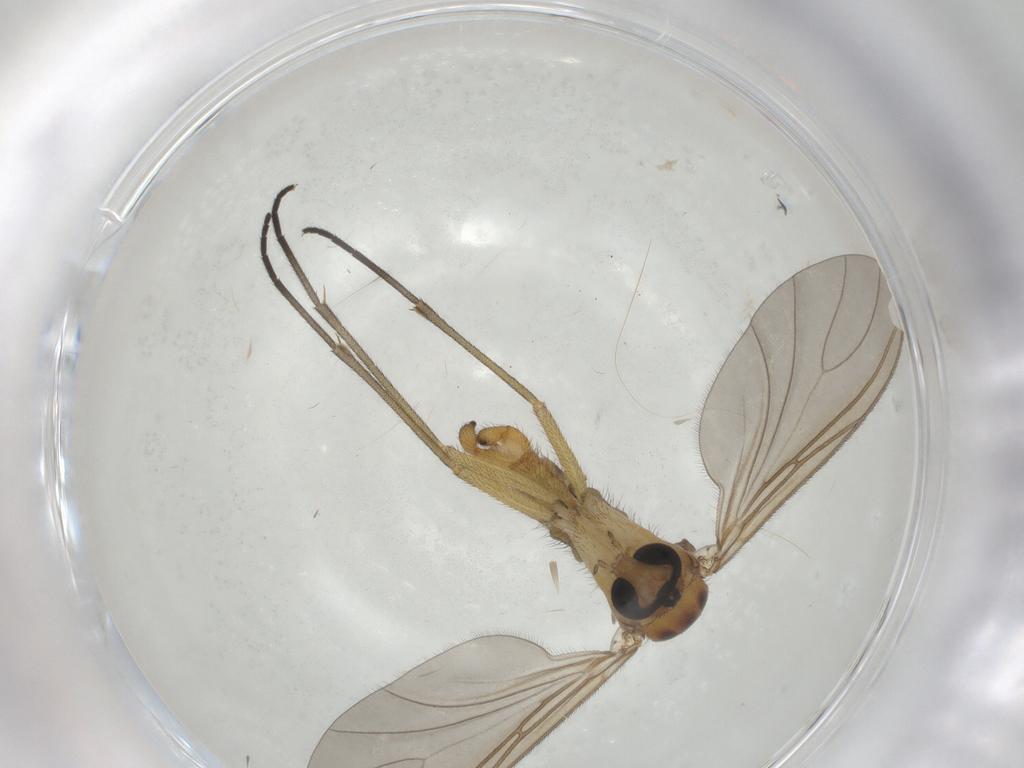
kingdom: Animalia
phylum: Arthropoda
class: Insecta
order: Diptera
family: Sciaridae
